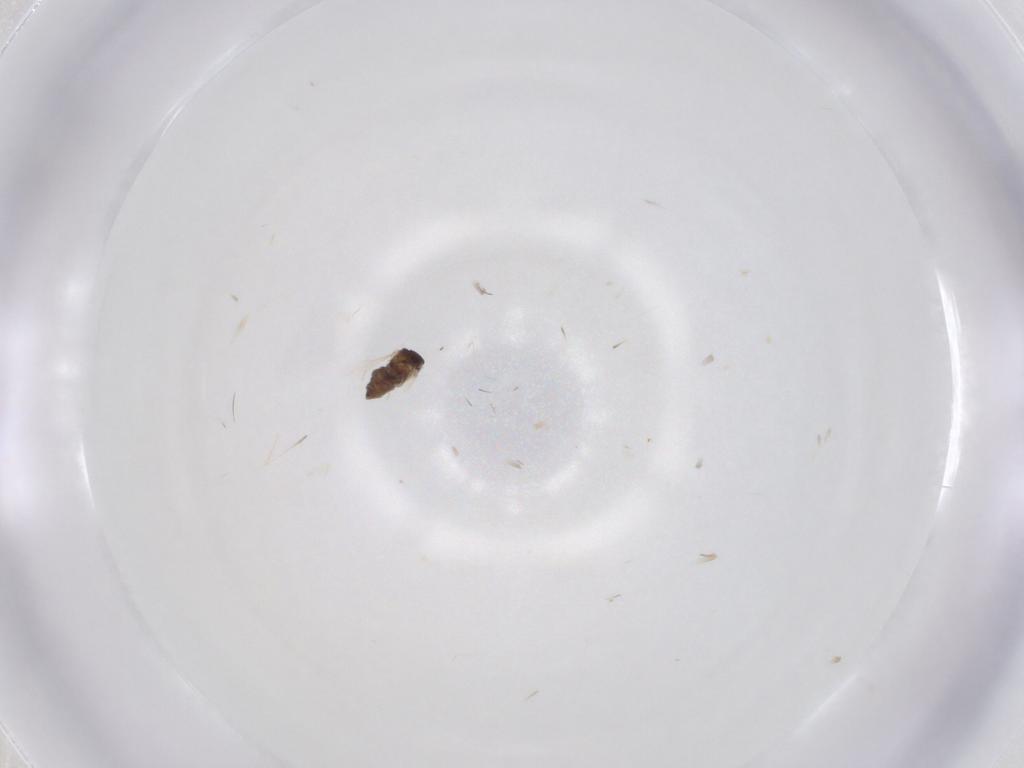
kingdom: Animalia
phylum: Arthropoda
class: Insecta
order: Diptera
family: Cecidomyiidae
